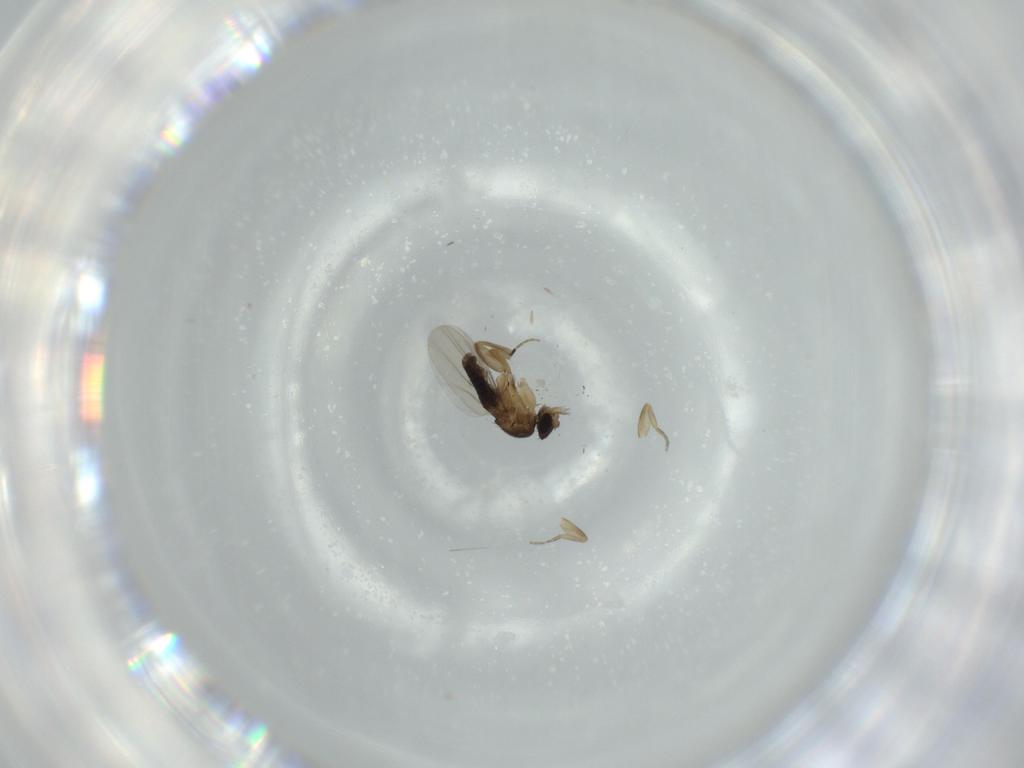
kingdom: Animalia
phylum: Arthropoda
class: Insecta
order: Diptera
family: Phoridae
